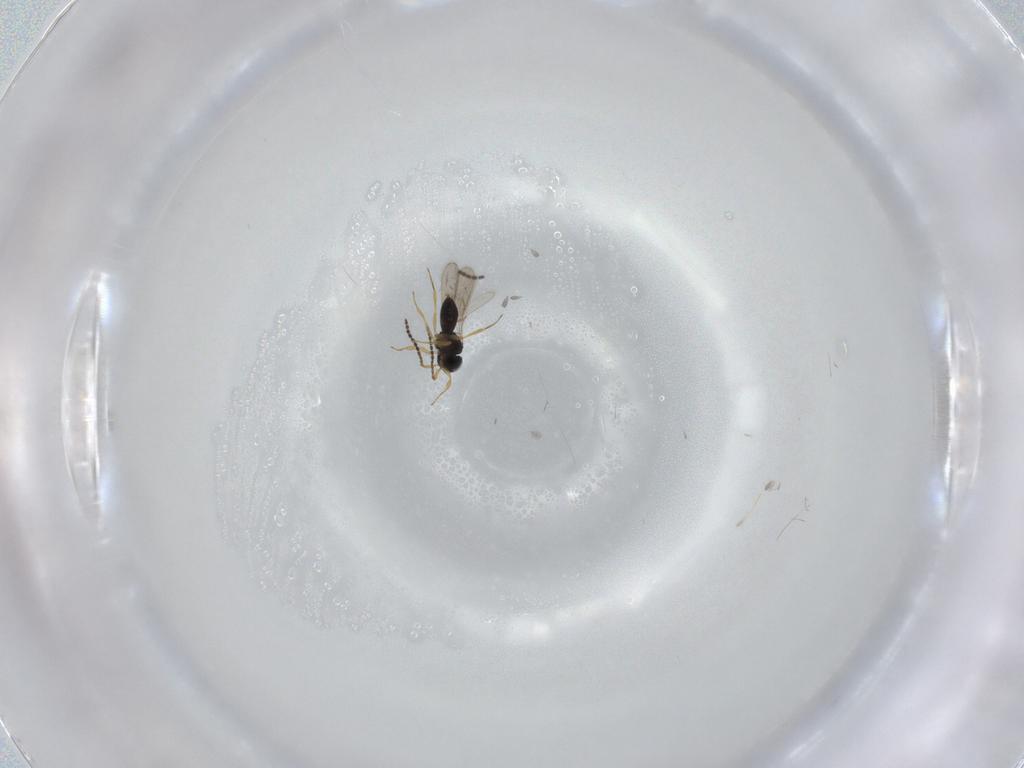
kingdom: Animalia
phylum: Arthropoda
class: Insecta
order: Hymenoptera
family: Scelionidae
